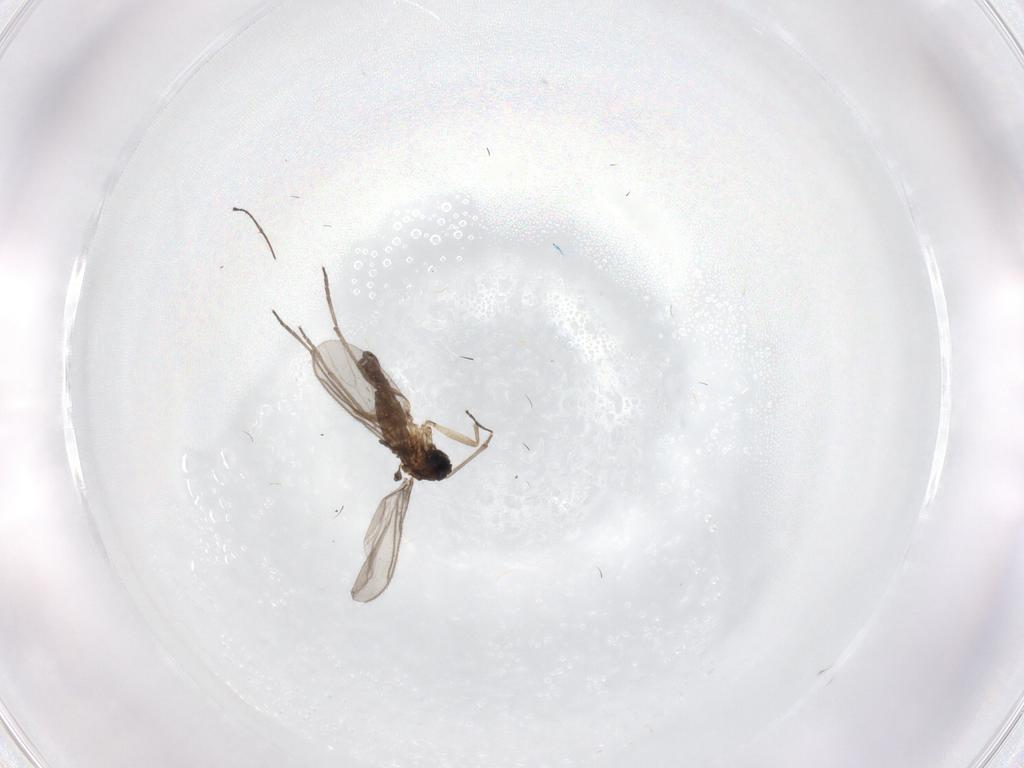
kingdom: Animalia
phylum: Arthropoda
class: Insecta
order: Diptera
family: Sciaridae
